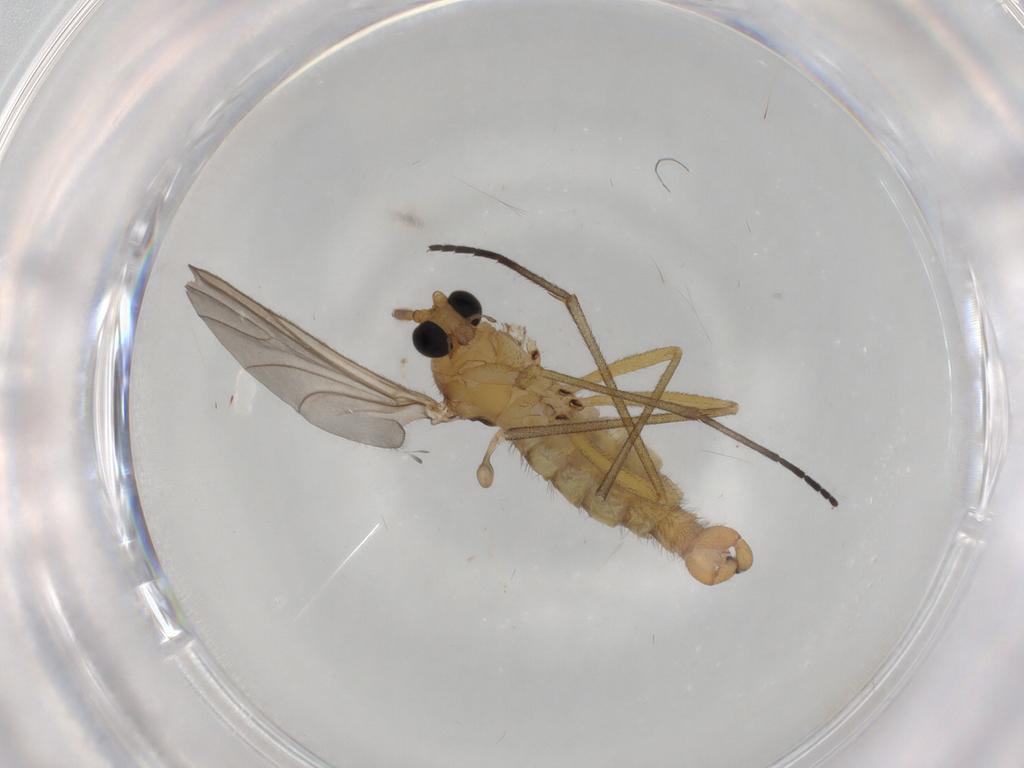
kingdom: Animalia
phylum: Arthropoda
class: Insecta
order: Diptera
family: Sciaridae
